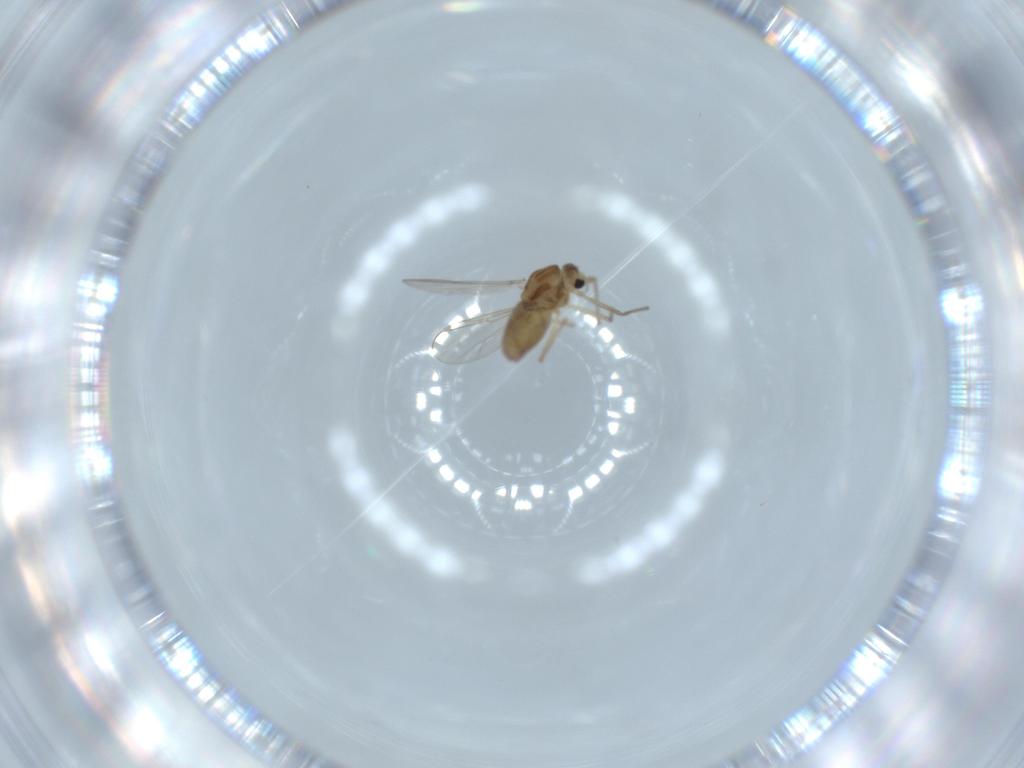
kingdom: Animalia
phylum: Arthropoda
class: Insecta
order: Diptera
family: Chironomidae
